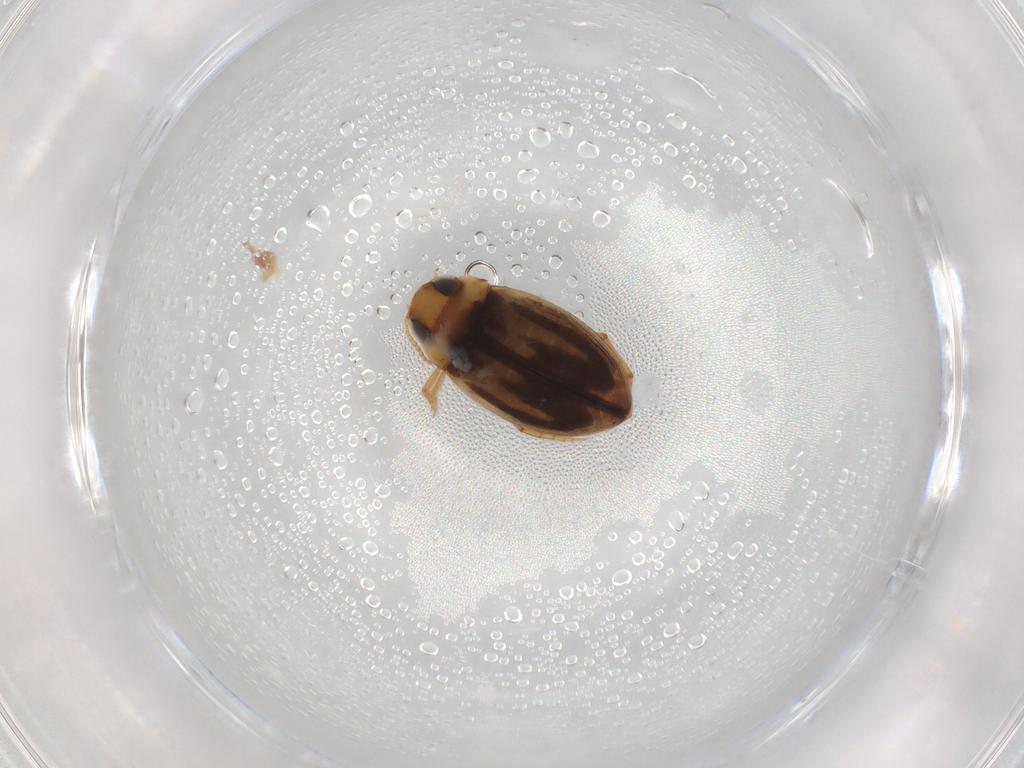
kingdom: Animalia
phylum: Arthropoda
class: Insecta
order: Coleoptera
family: Dytiscidae
